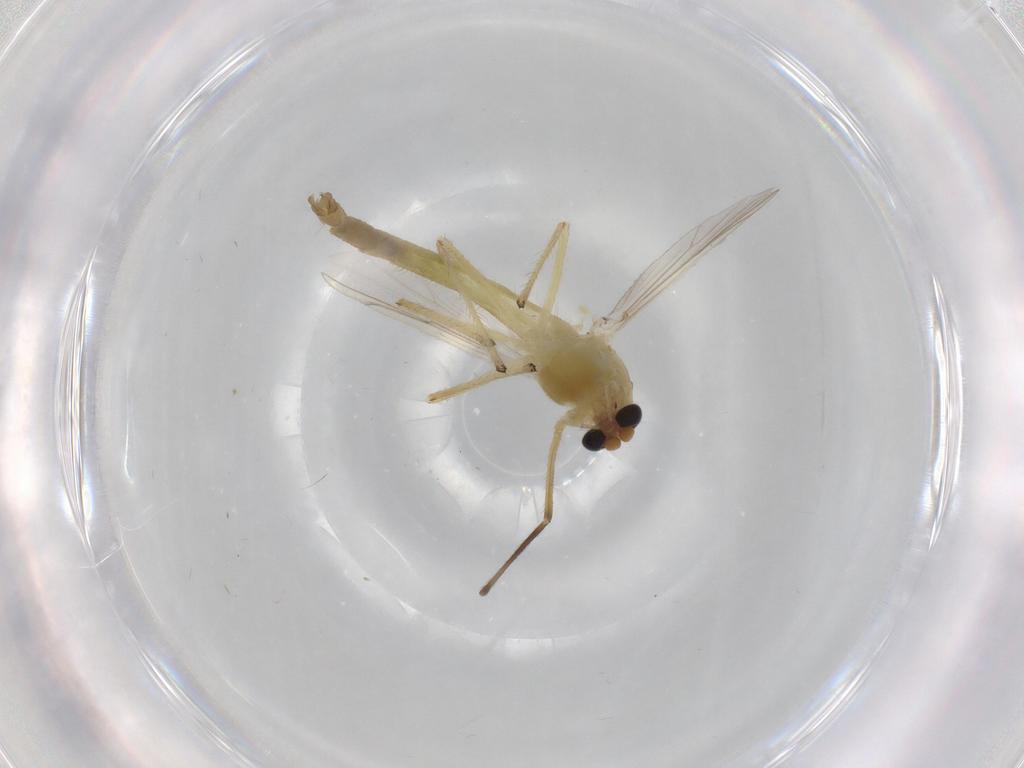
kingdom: Animalia
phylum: Arthropoda
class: Insecta
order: Diptera
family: Chironomidae
